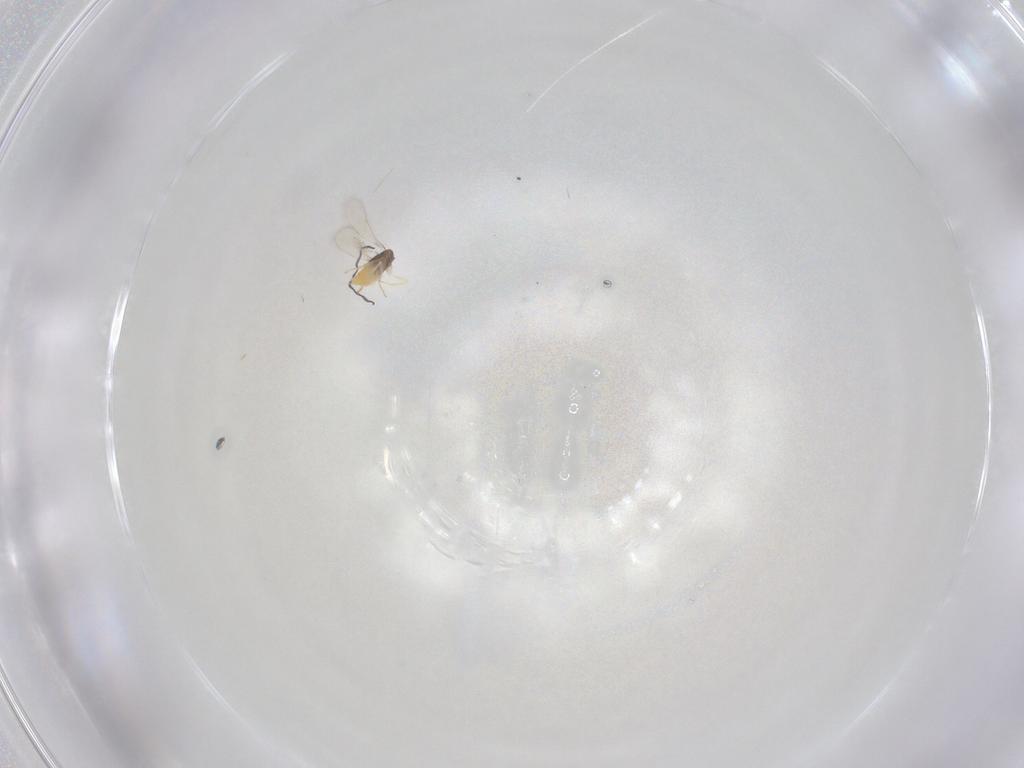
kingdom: Animalia
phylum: Arthropoda
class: Insecta
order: Hymenoptera
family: Mymaridae
